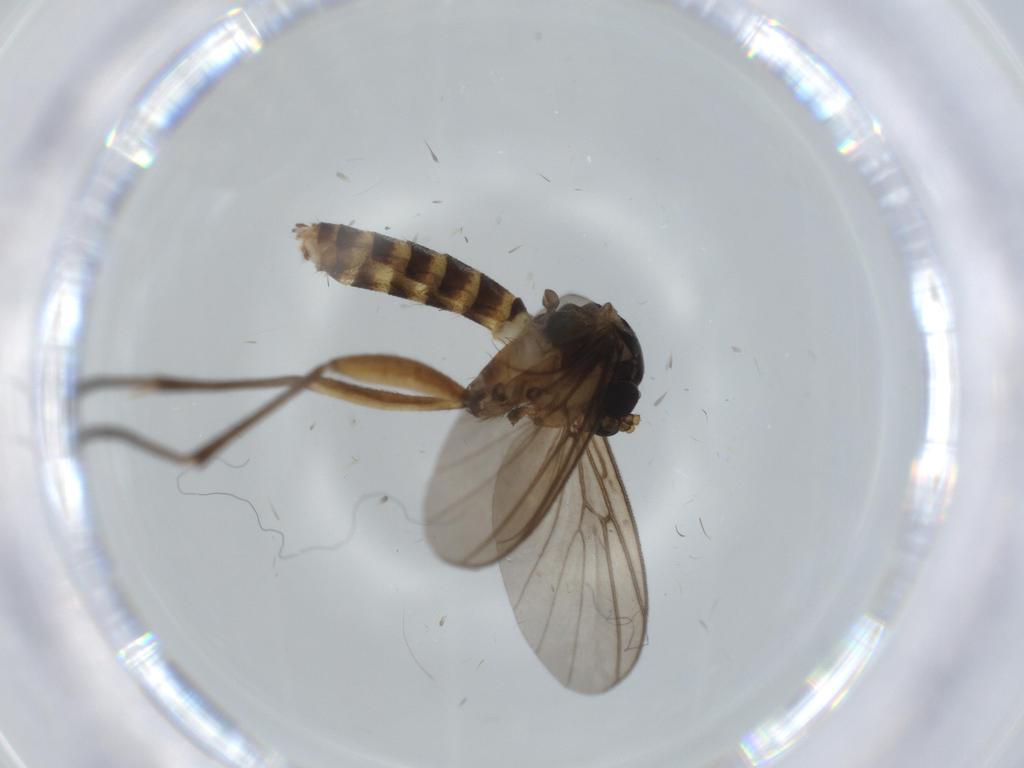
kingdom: Animalia
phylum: Arthropoda
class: Insecta
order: Diptera
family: Mycetophilidae
